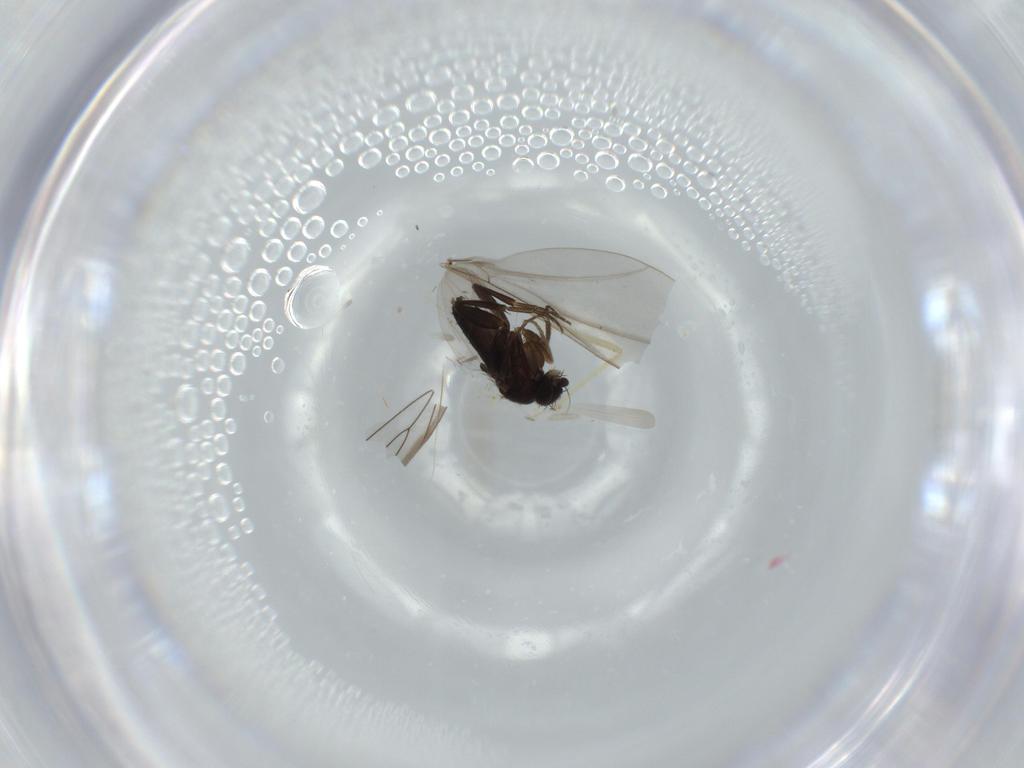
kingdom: Animalia
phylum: Arthropoda
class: Insecta
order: Diptera
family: Cecidomyiidae
